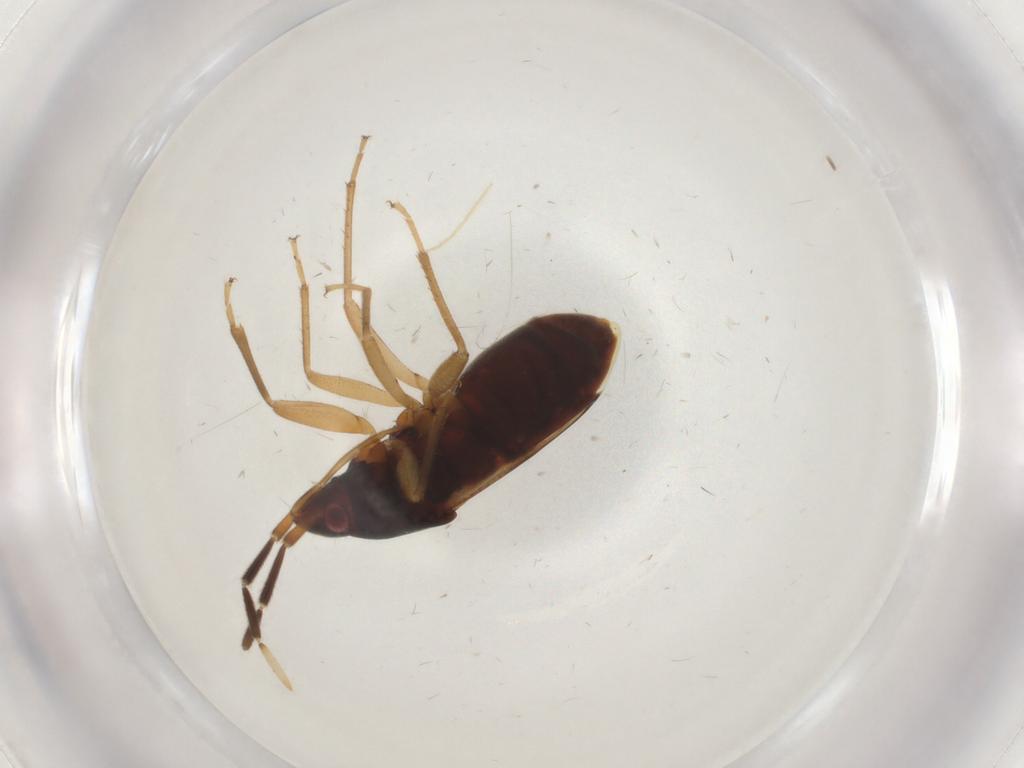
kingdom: Animalia
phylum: Arthropoda
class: Insecta
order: Hemiptera
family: Rhyparochromidae
